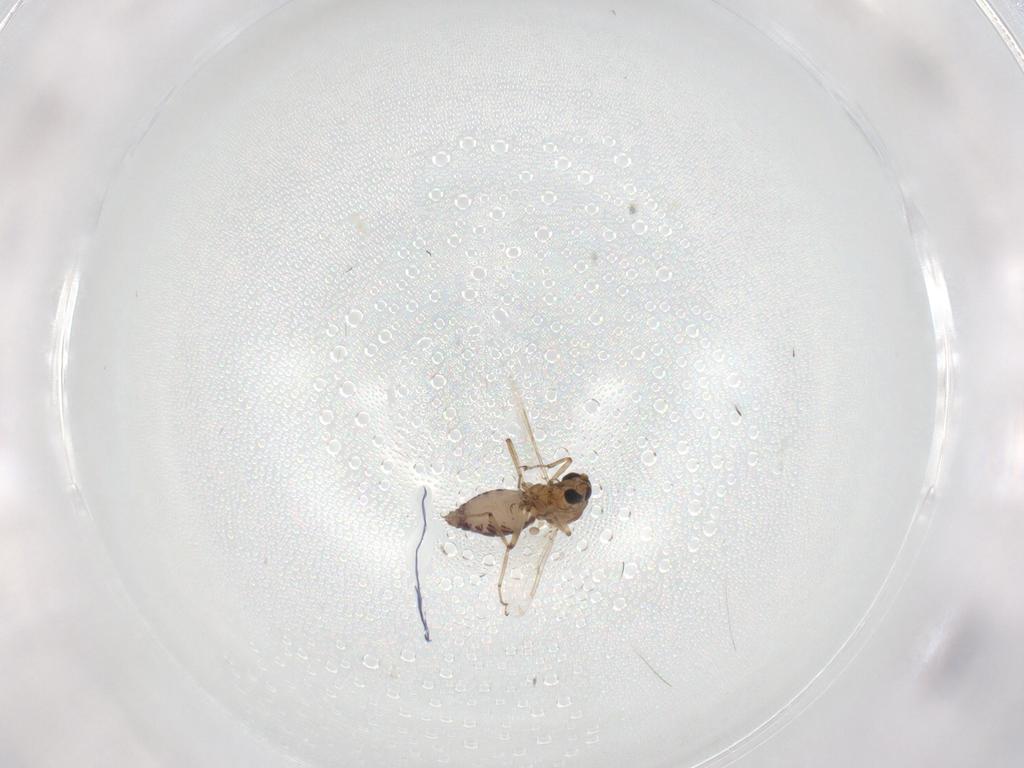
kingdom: Animalia
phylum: Arthropoda
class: Insecta
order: Diptera
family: Ceratopogonidae
